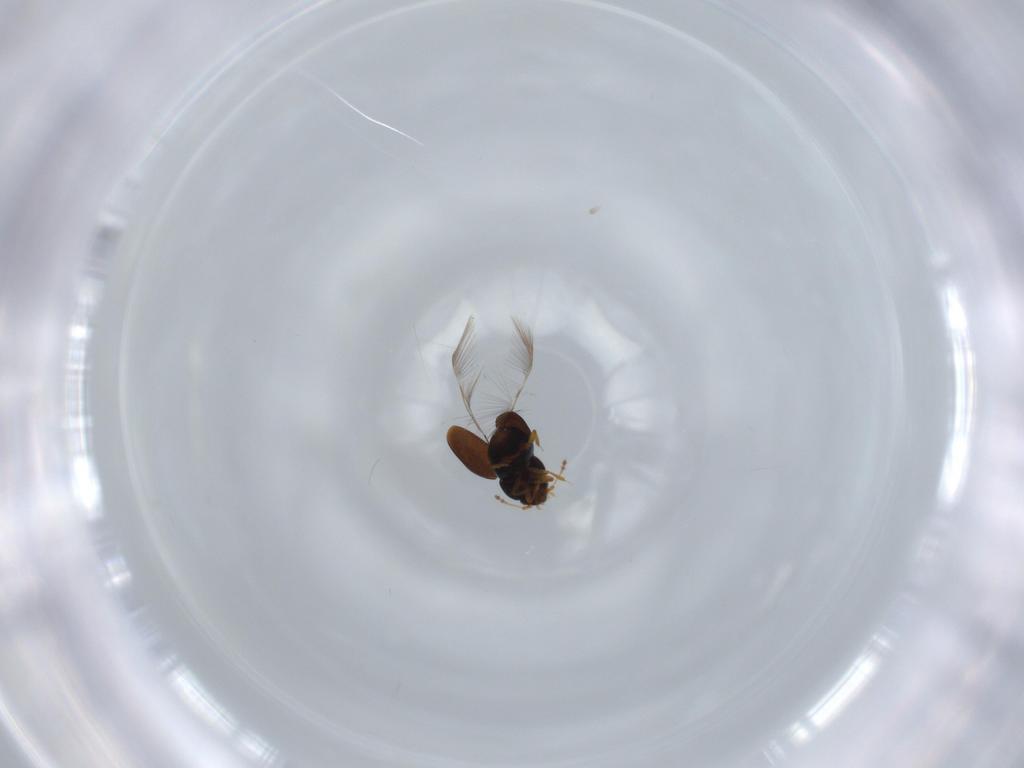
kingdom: Animalia
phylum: Arthropoda
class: Insecta
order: Coleoptera
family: Ptiliidae
